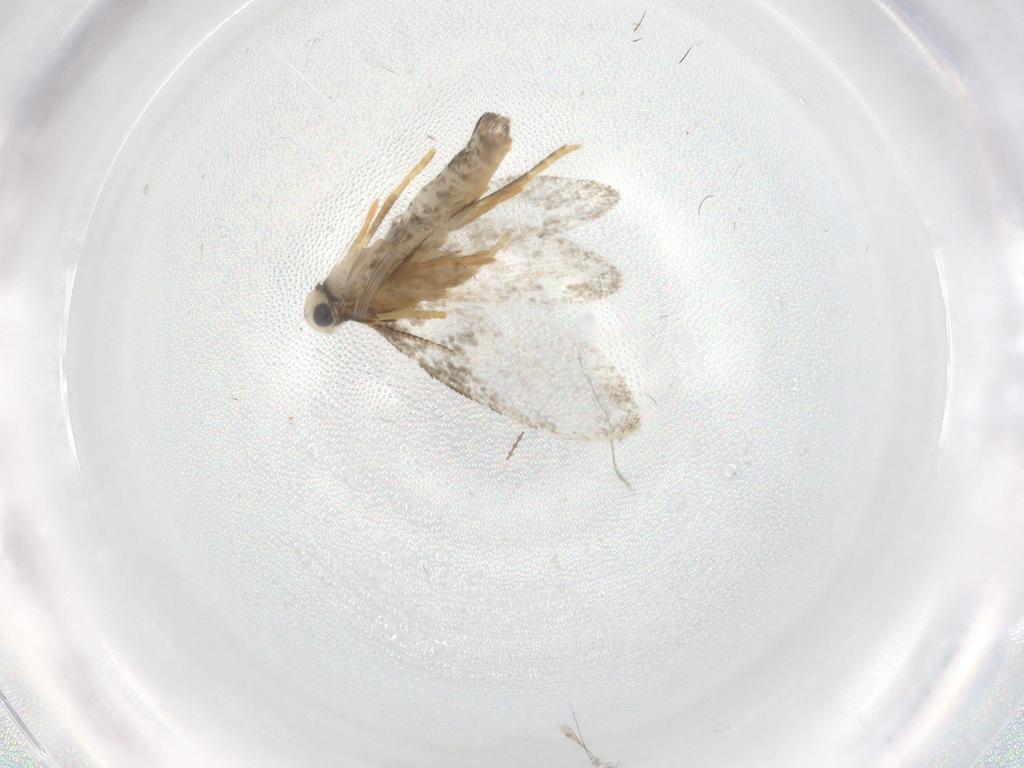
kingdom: Animalia
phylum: Arthropoda
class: Insecta
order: Lepidoptera
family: Psychidae
